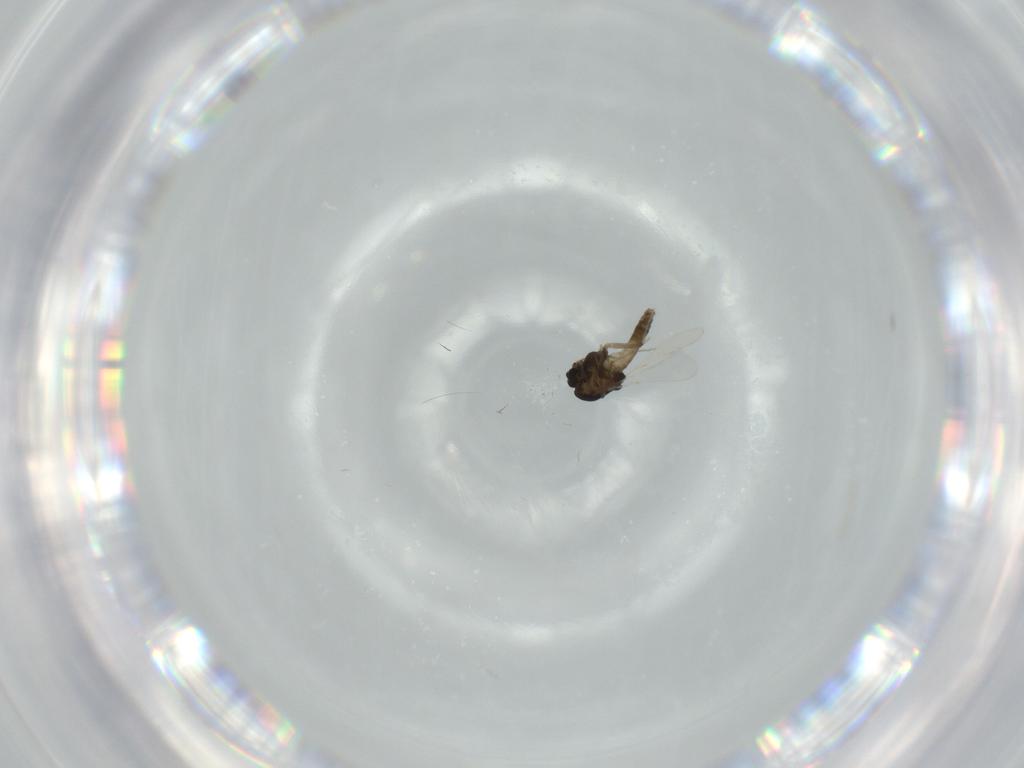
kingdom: Animalia
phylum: Arthropoda
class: Insecta
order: Diptera
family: Chironomidae
